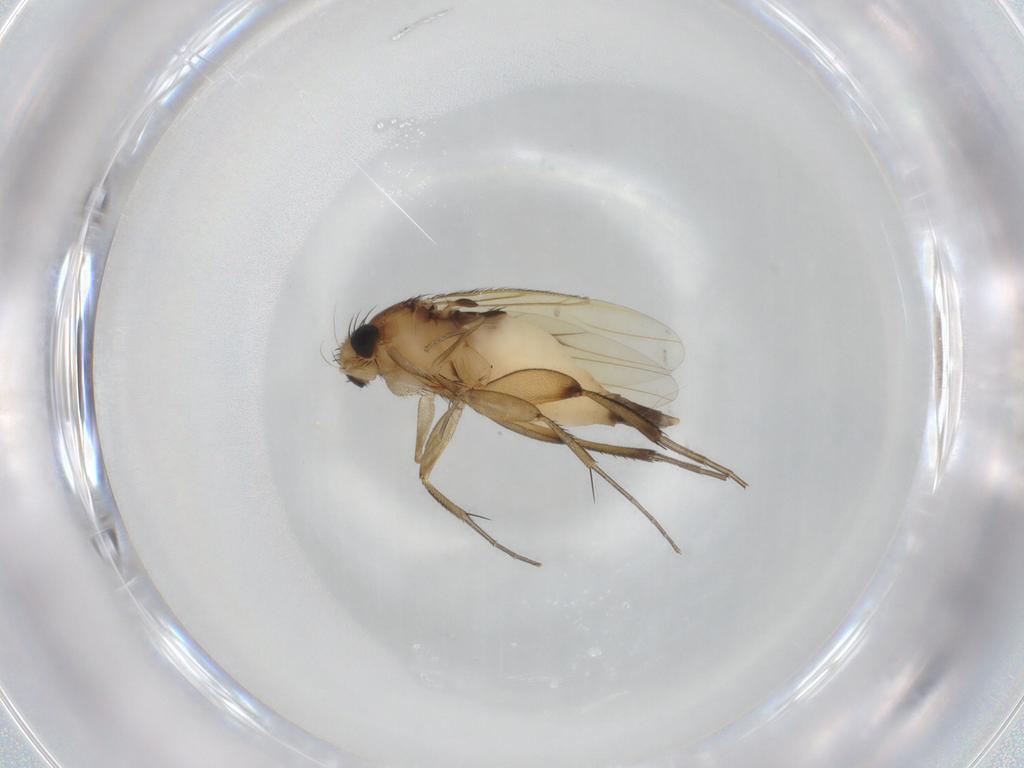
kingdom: Animalia
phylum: Arthropoda
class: Insecta
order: Diptera
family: Phoridae
